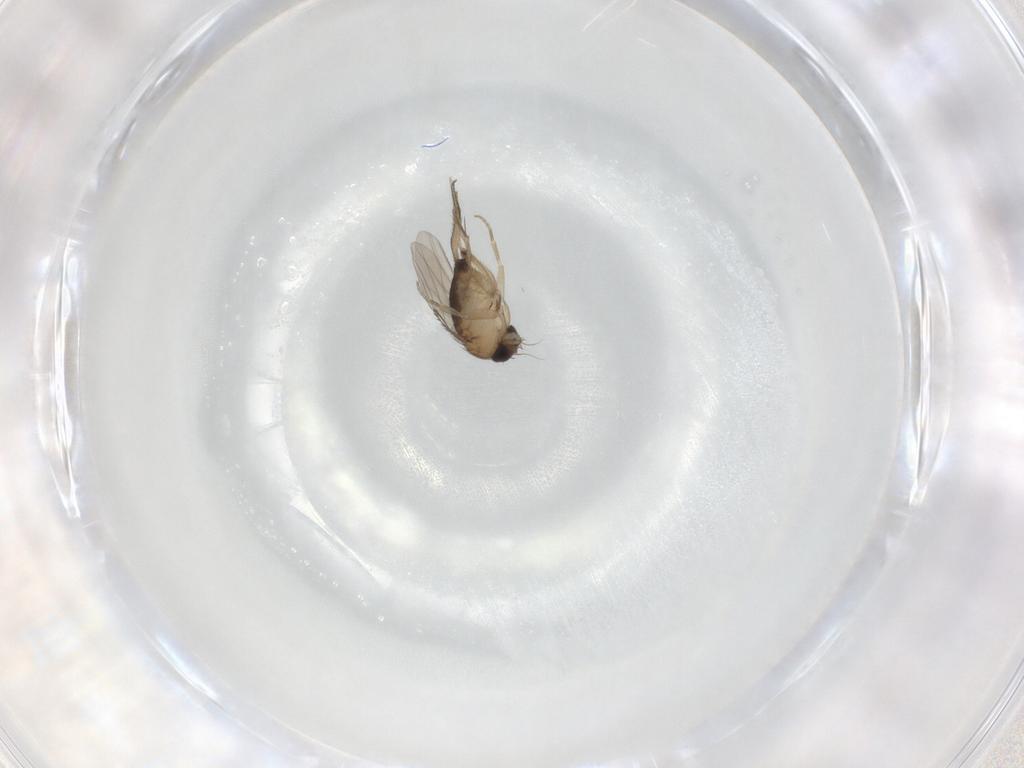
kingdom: Animalia
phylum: Arthropoda
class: Insecta
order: Diptera
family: Phoridae
